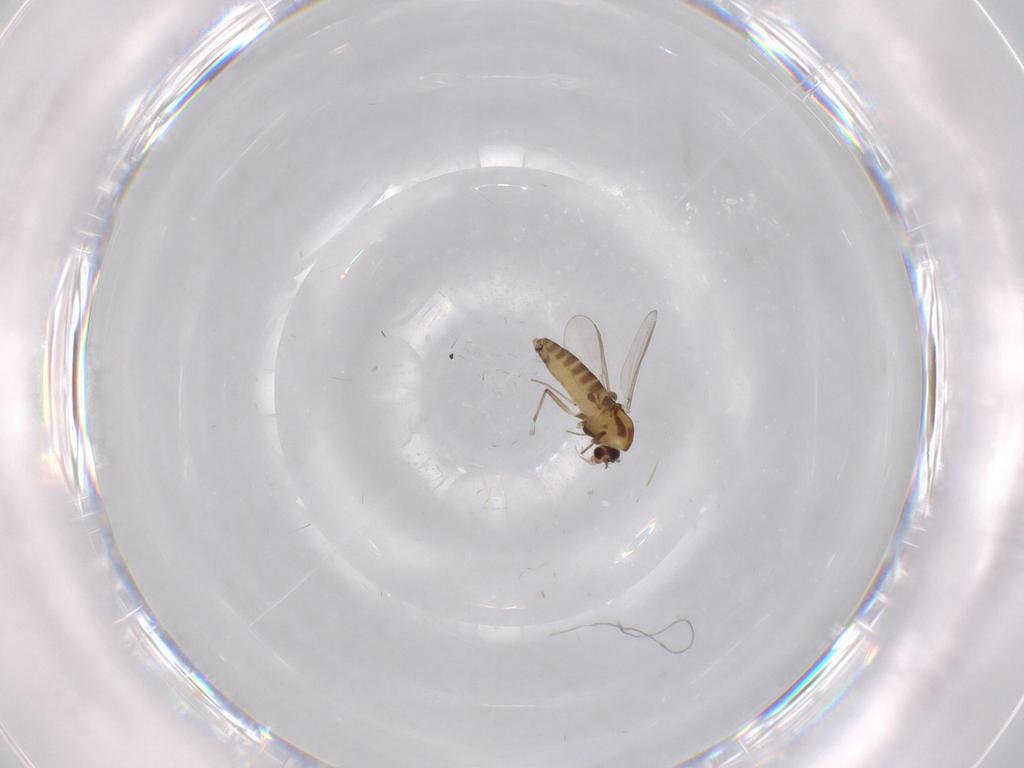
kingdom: Animalia
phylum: Arthropoda
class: Insecta
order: Diptera
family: Chironomidae
